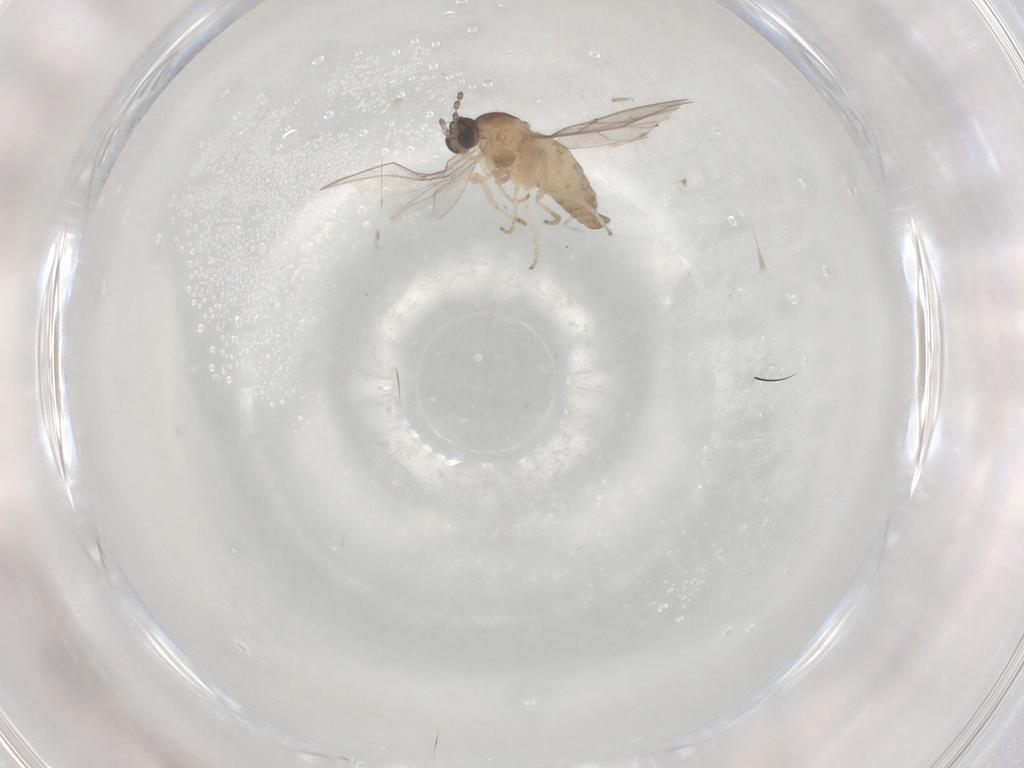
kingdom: Animalia
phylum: Arthropoda
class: Insecta
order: Diptera
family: Cecidomyiidae
